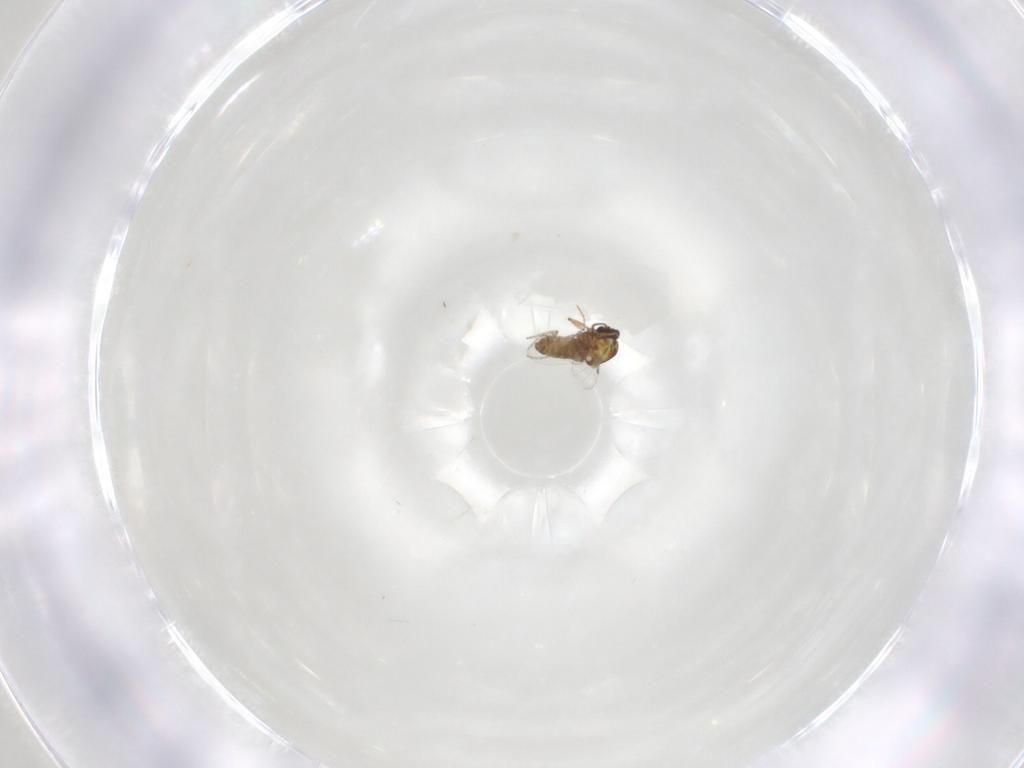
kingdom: Animalia
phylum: Arthropoda
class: Insecta
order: Diptera
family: Ceratopogonidae
